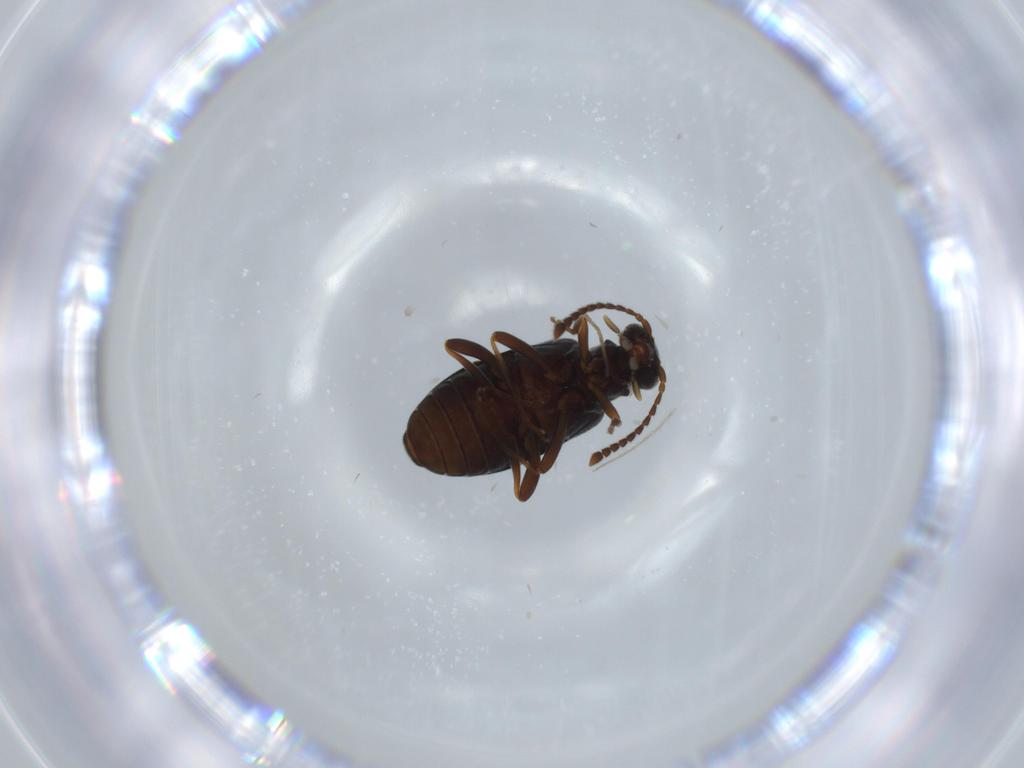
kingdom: Animalia
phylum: Arthropoda
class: Insecta
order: Coleoptera
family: Aderidae
